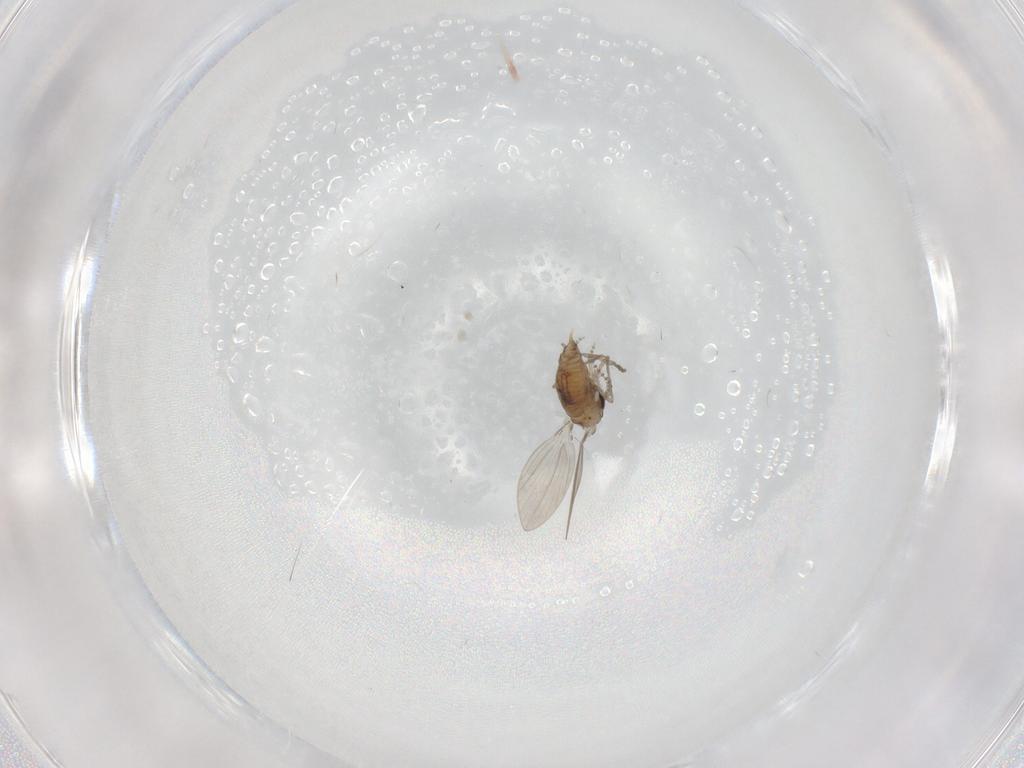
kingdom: Animalia
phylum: Arthropoda
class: Insecta
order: Diptera
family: Psychodidae
